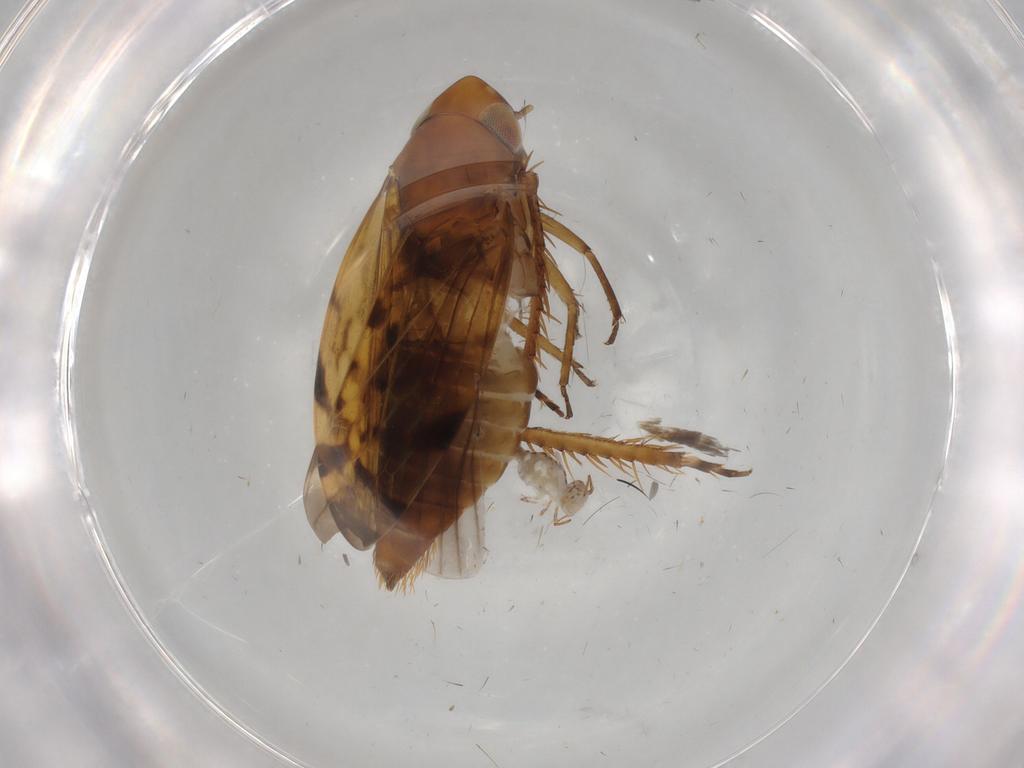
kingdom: Animalia
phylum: Arthropoda
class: Collembola
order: Symphypleona
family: Bourletiellidae
